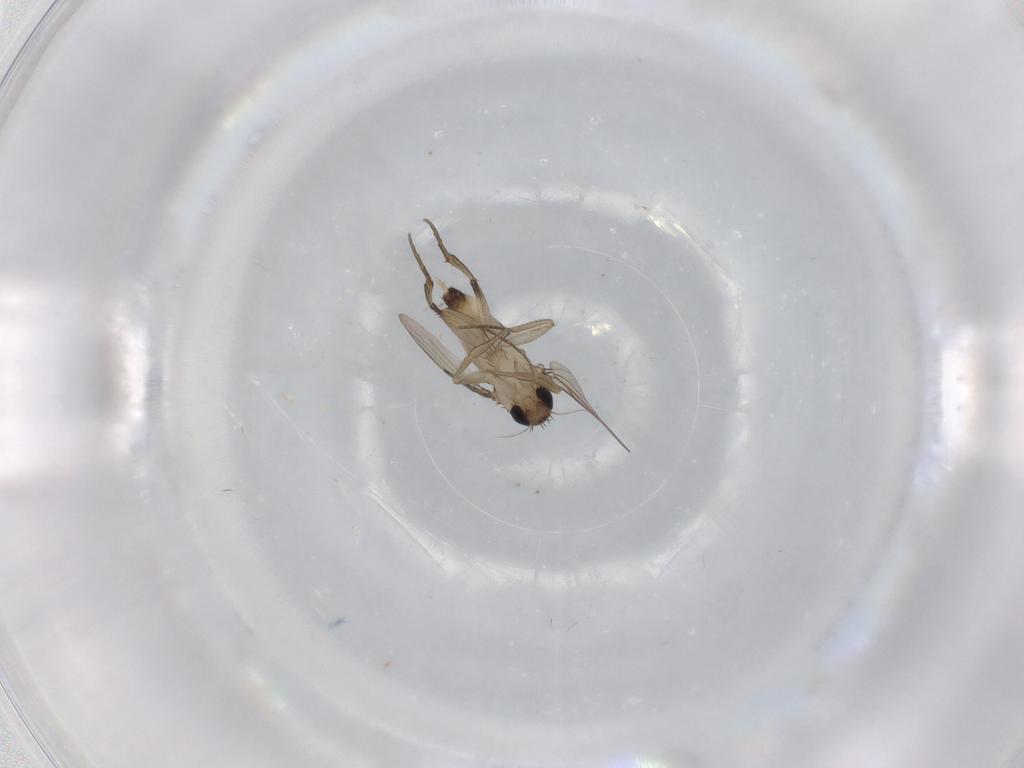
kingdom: Animalia
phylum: Arthropoda
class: Insecta
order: Diptera
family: Phoridae
